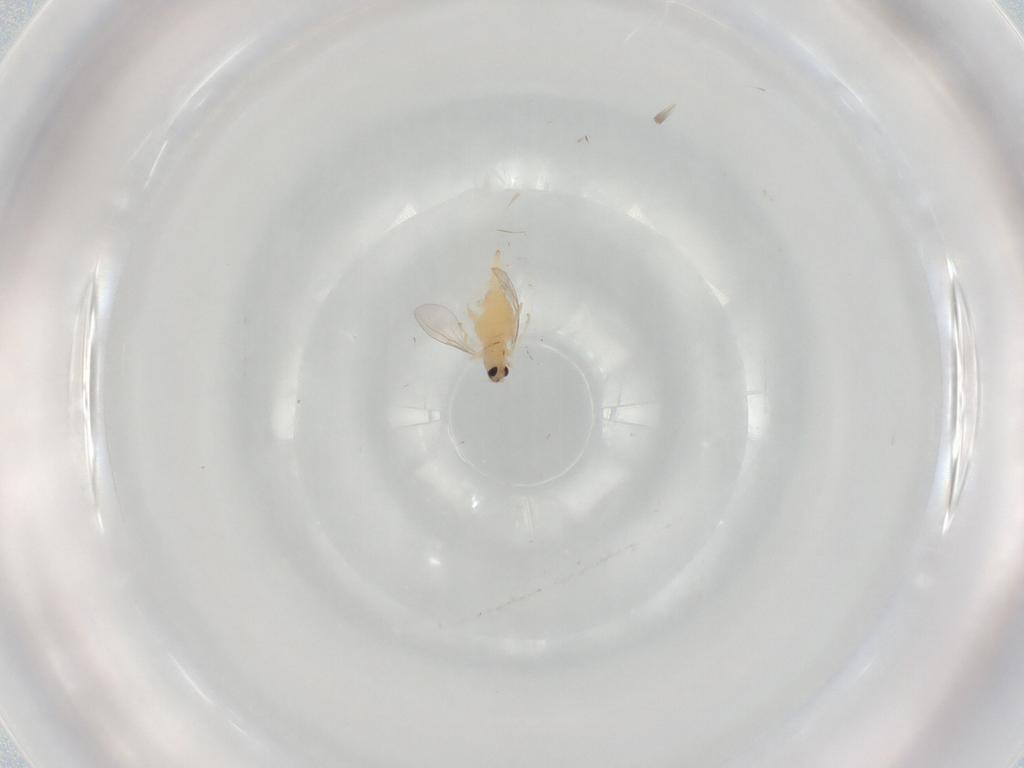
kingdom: Animalia
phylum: Arthropoda
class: Insecta
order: Diptera
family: Cecidomyiidae
